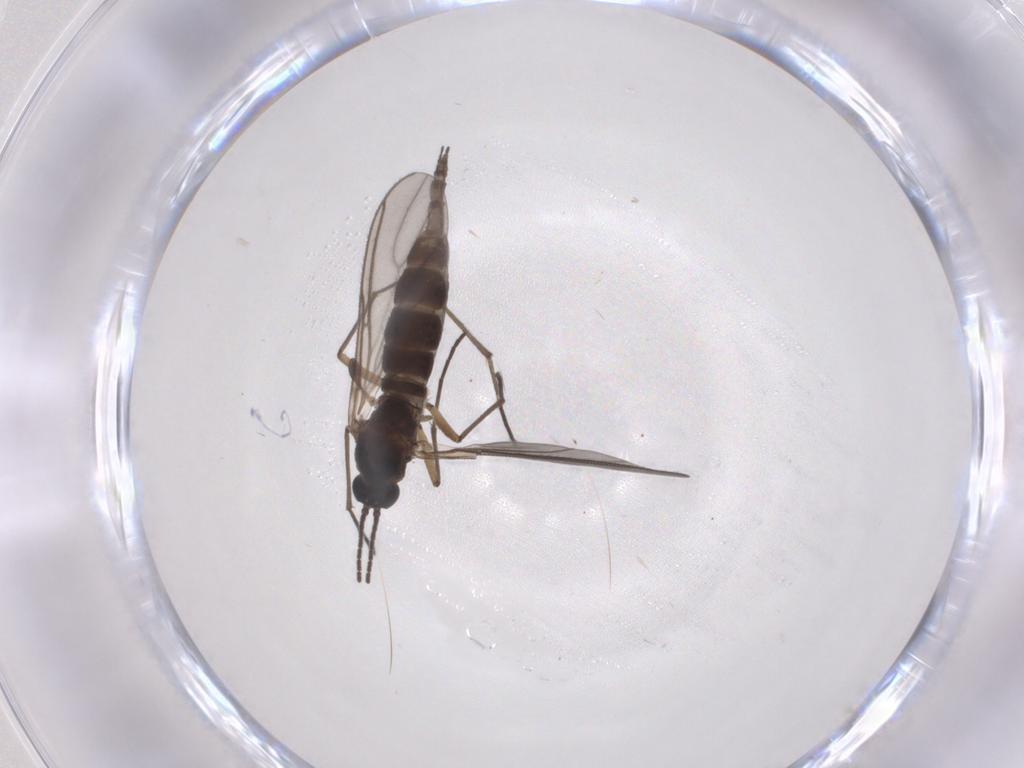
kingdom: Animalia
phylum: Arthropoda
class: Insecta
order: Diptera
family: Sciaridae
